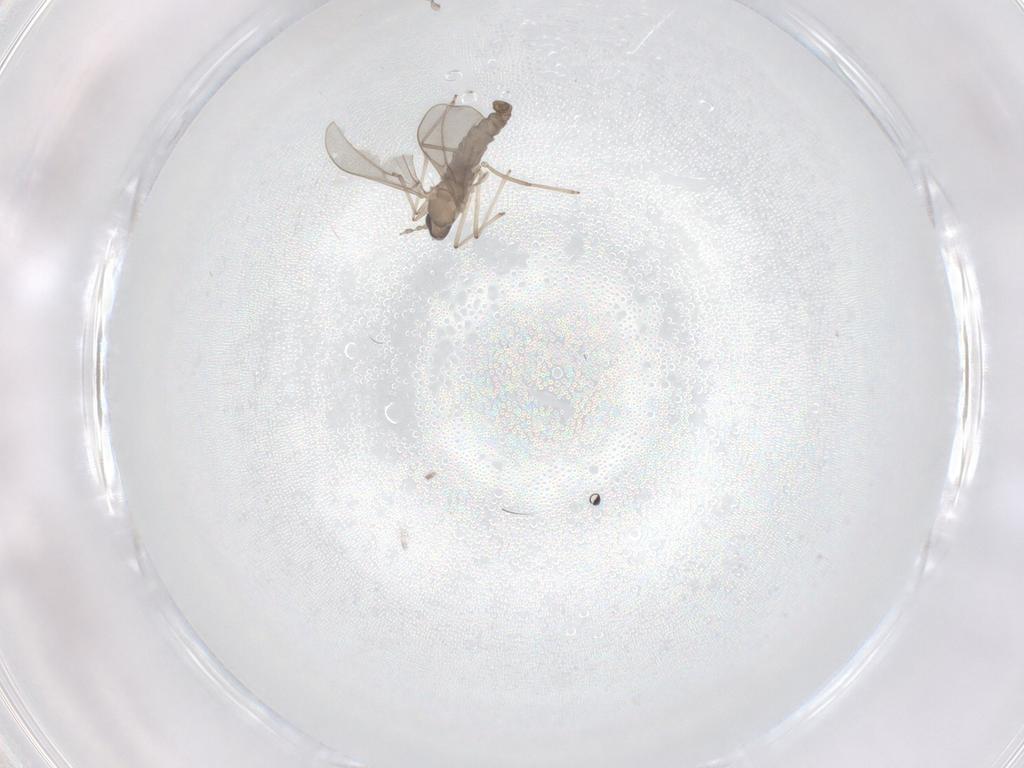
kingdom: Animalia
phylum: Arthropoda
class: Insecta
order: Diptera
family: Cecidomyiidae
